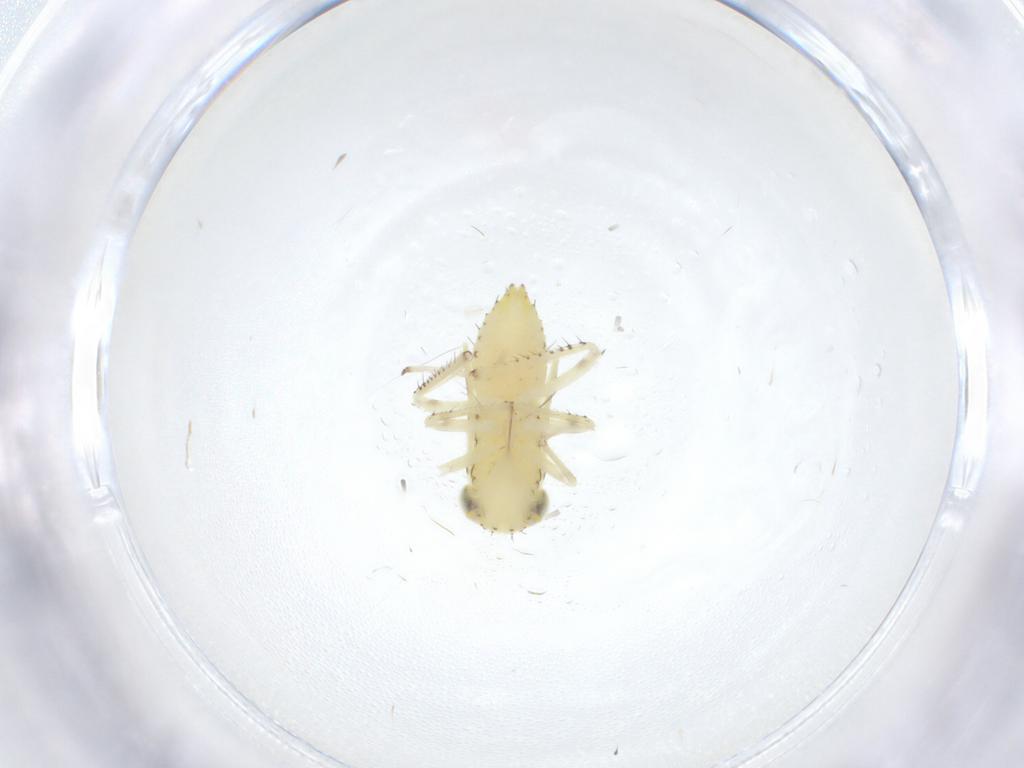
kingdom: Animalia
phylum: Arthropoda
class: Insecta
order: Hemiptera
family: Cicadellidae
